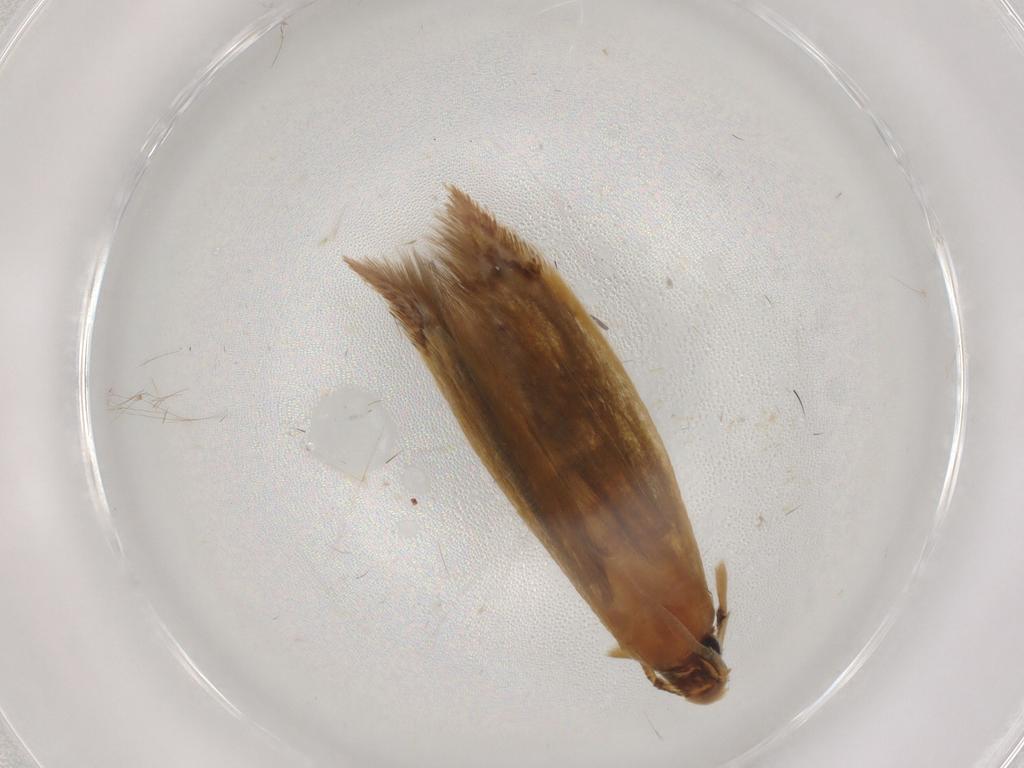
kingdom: Animalia
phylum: Arthropoda
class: Insecta
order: Lepidoptera
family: Tineidae
